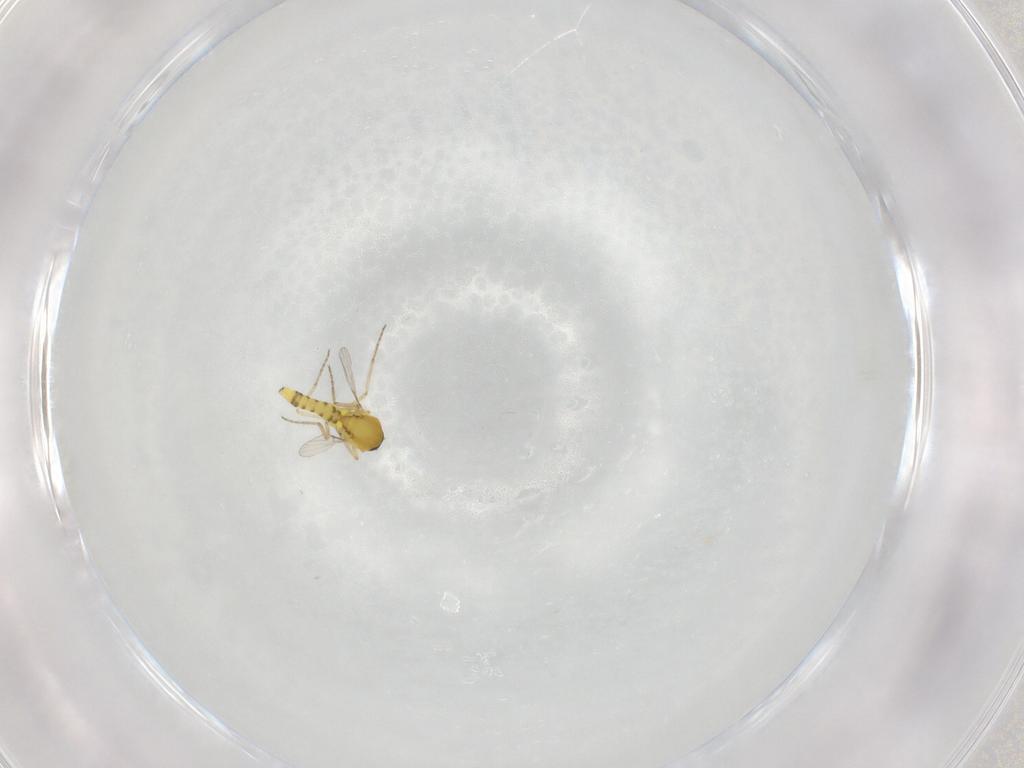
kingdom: Animalia
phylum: Arthropoda
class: Insecta
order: Diptera
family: Ceratopogonidae
